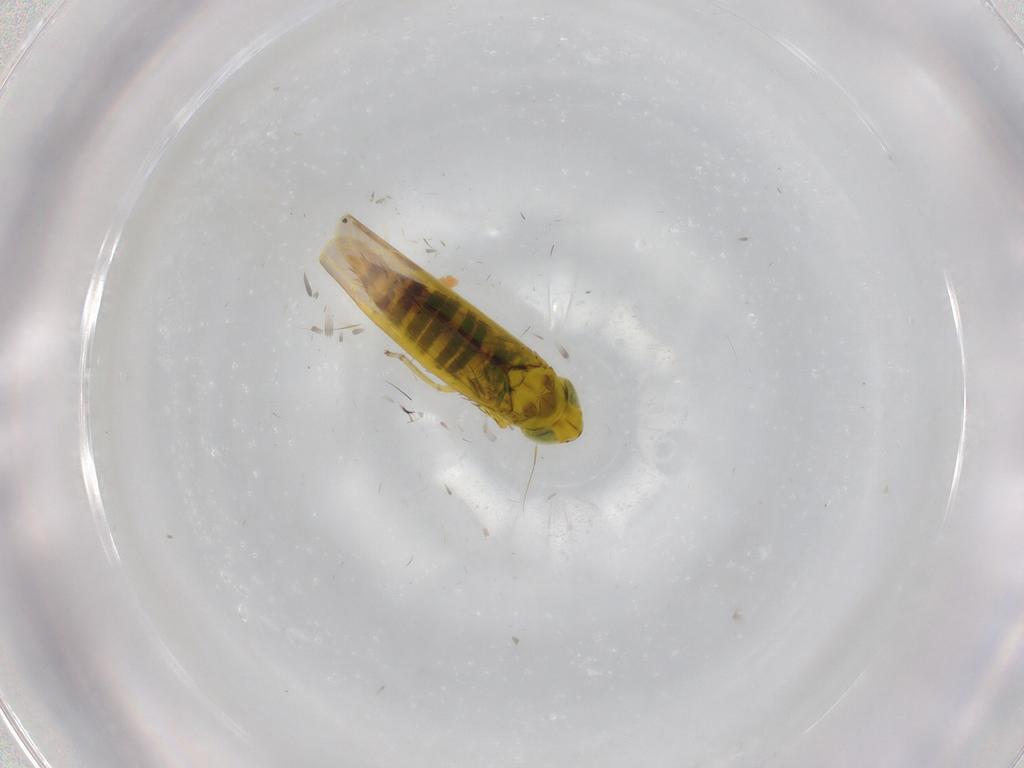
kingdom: Animalia
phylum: Arthropoda
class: Insecta
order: Hemiptera
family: Cicadellidae
